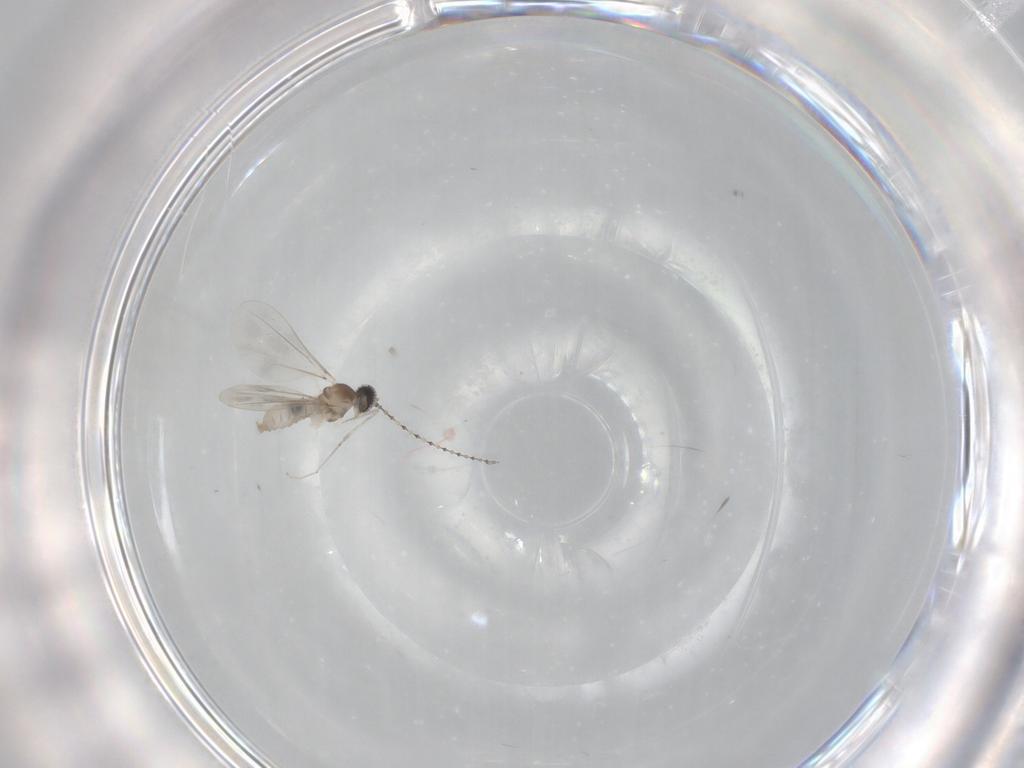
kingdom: Animalia
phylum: Arthropoda
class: Insecta
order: Diptera
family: Cecidomyiidae
